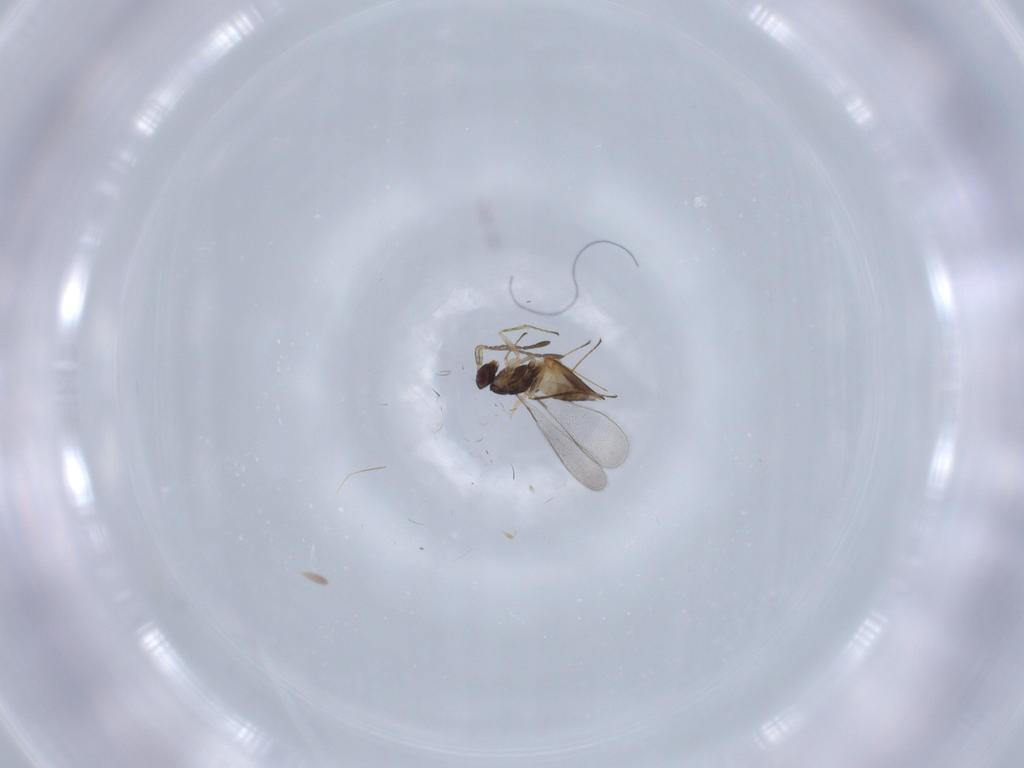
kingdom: Animalia
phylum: Arthropoda
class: Insecta
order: Hymenoptera
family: Mymaridae
